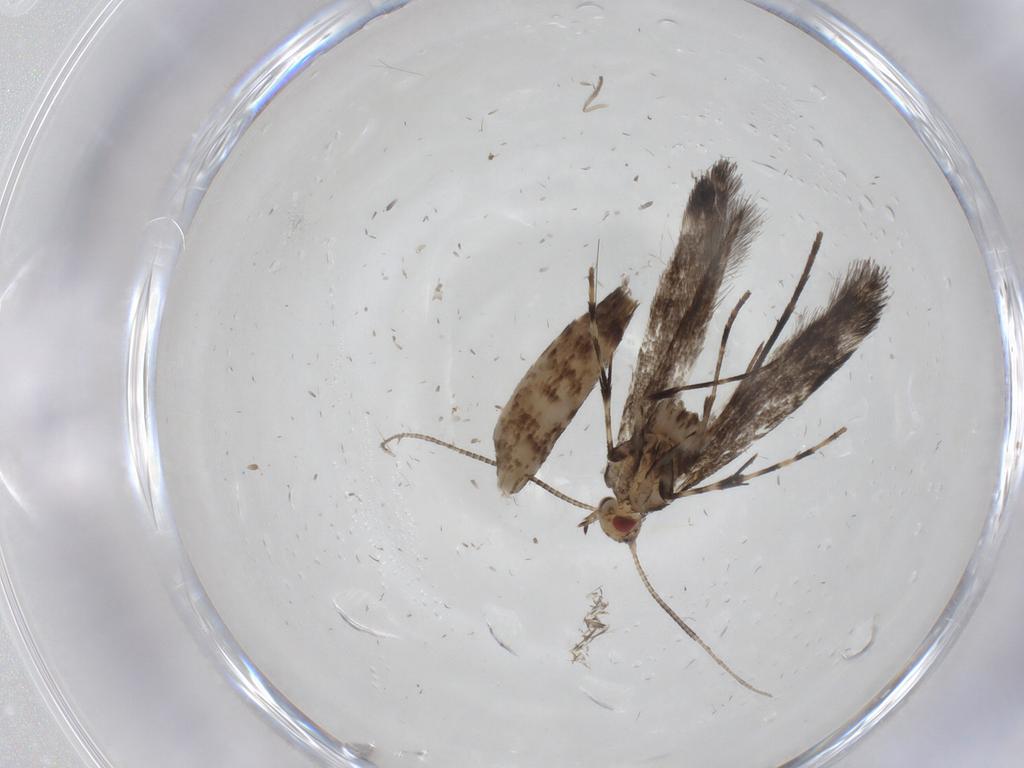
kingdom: Animalia
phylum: Arthropoda
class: Insecta
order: Lepidoptera
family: Gracillariidae
